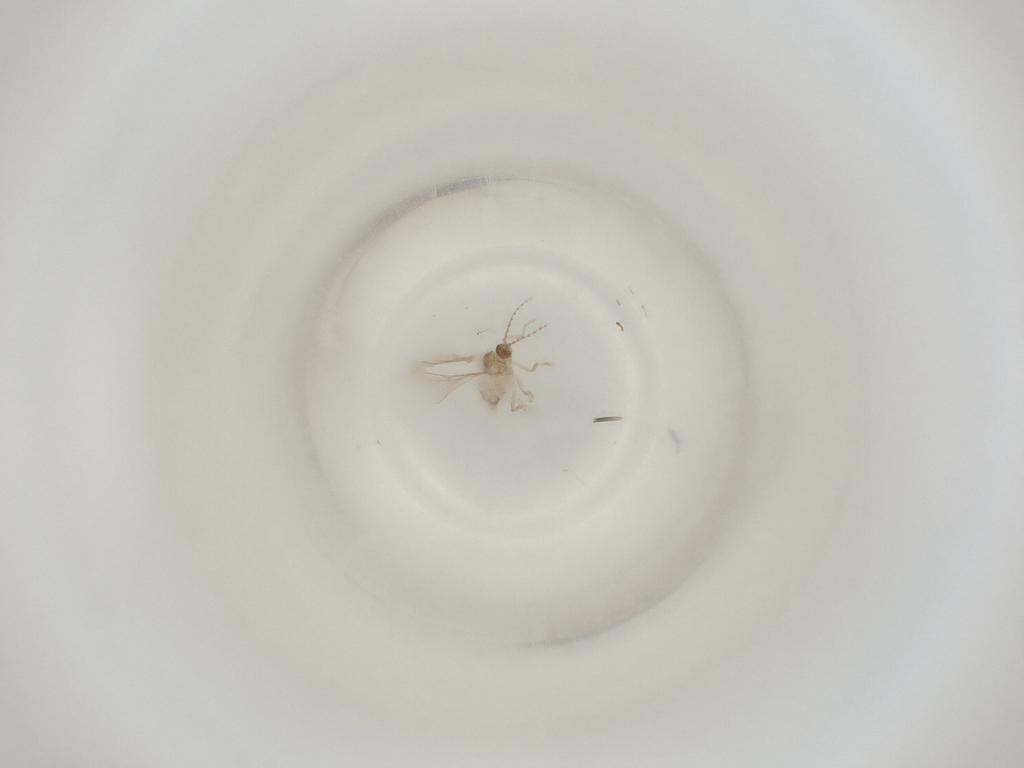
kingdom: Animalia
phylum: Arthropoda
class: Insecta
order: Diptera
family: Cecidomyiidae
